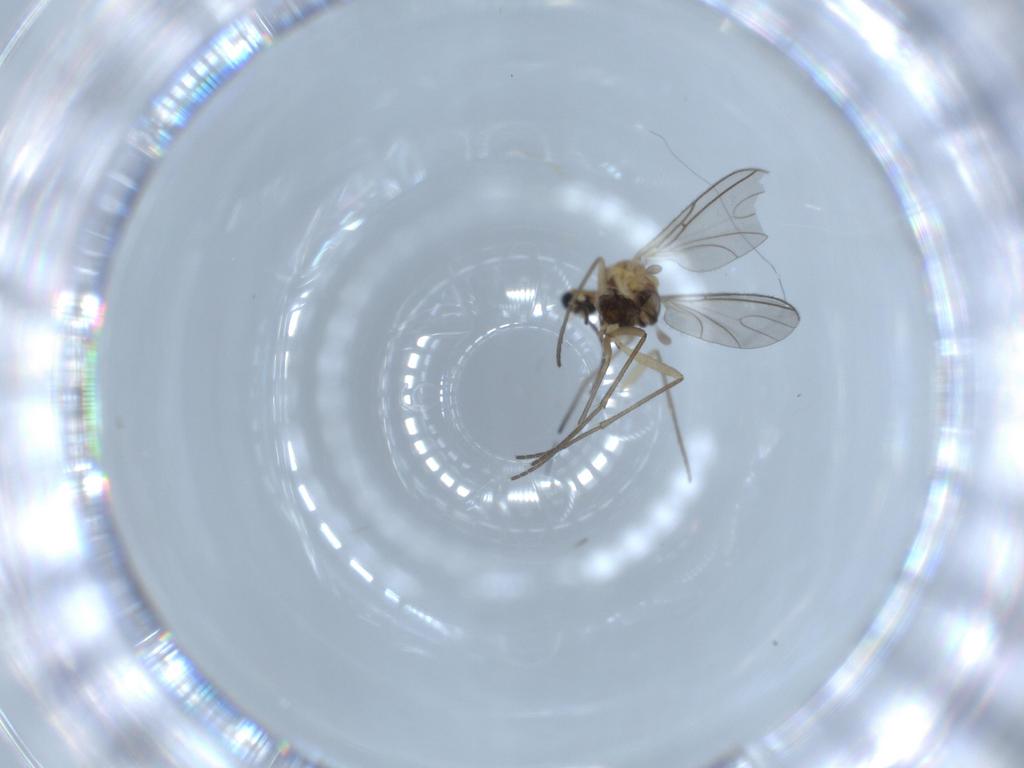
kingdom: Animalia
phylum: Arthropoda
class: Insecta
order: Diptera
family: Sciaridae
